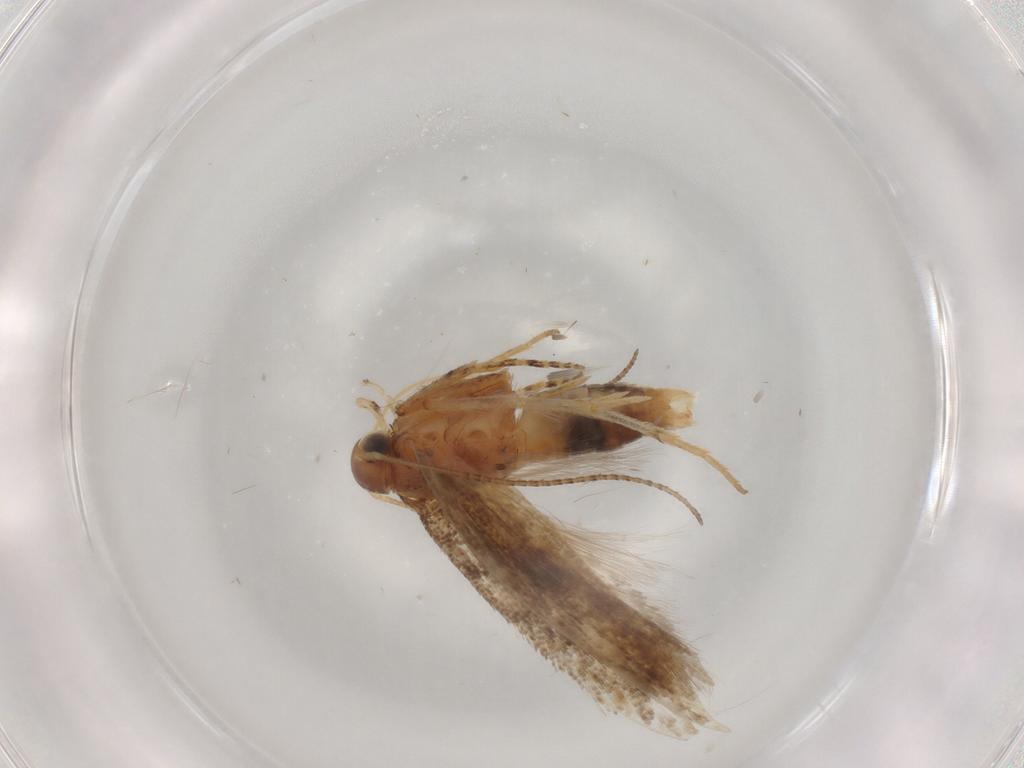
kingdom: Animalia
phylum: Arthropoda
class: Insecta
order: Lepidoptera
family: Gelechiidae
